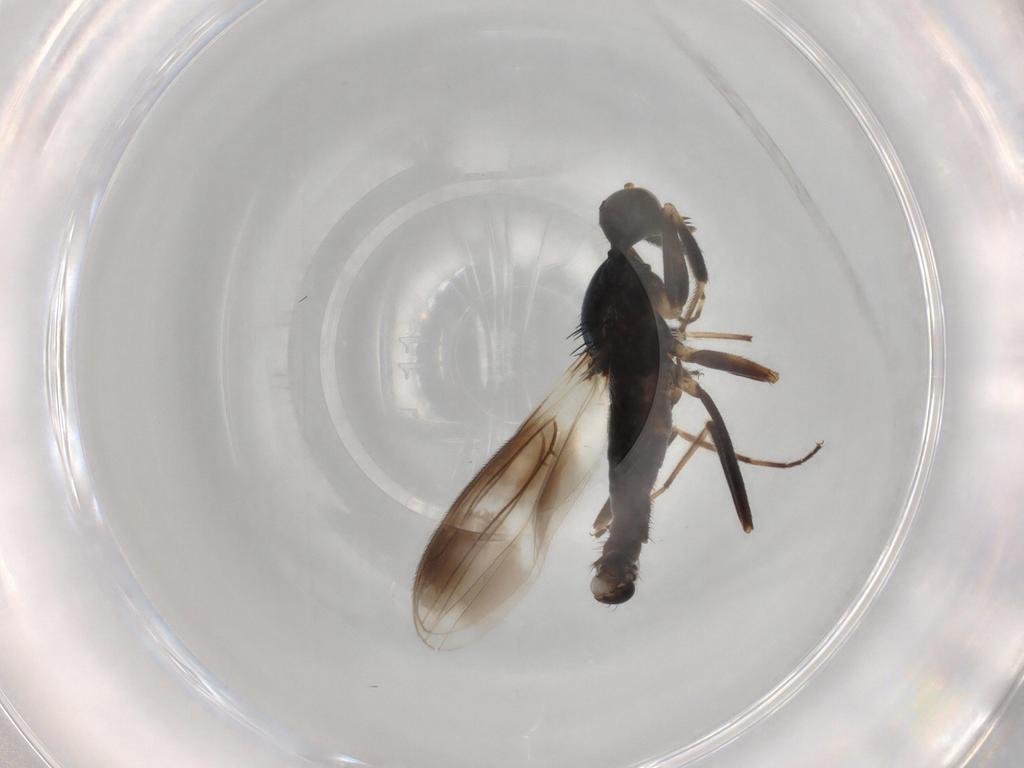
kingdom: Animalia
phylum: Arthropoda
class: Insecta
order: Diptera
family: Hybotidae
